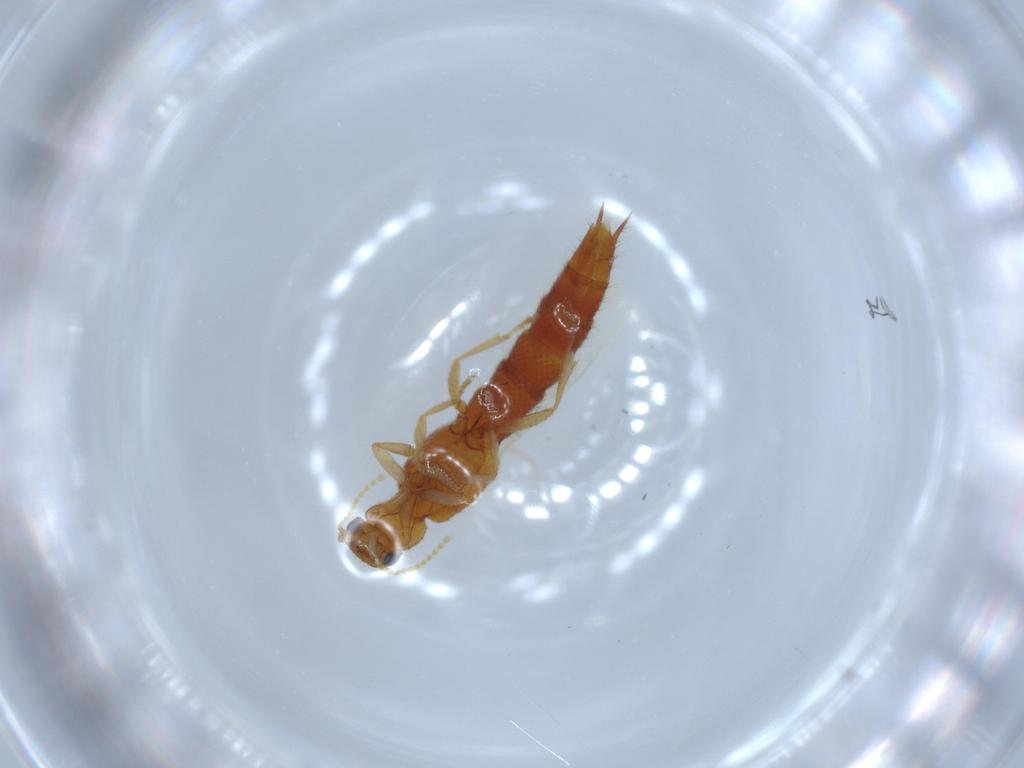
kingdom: Animalia
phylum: Arthropoda
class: Insecta
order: Coleoptera
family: Staphylinidae
